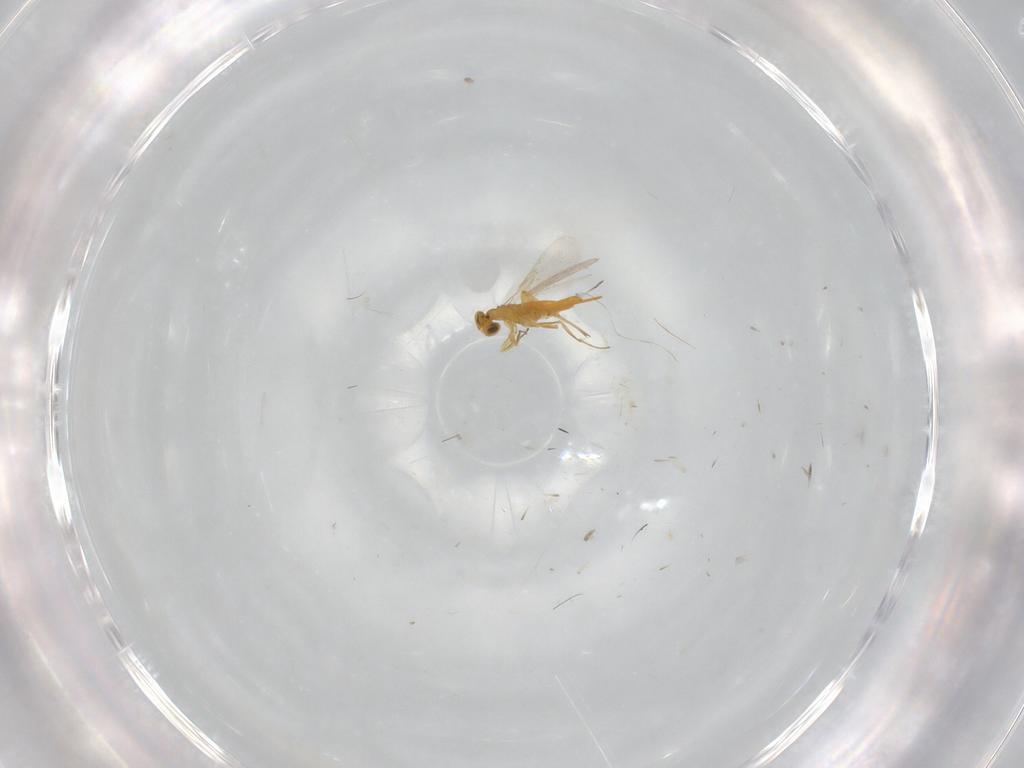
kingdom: Animalia
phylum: Arthropoda
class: Insecta
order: Hymenoptera
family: Aphelinidae
